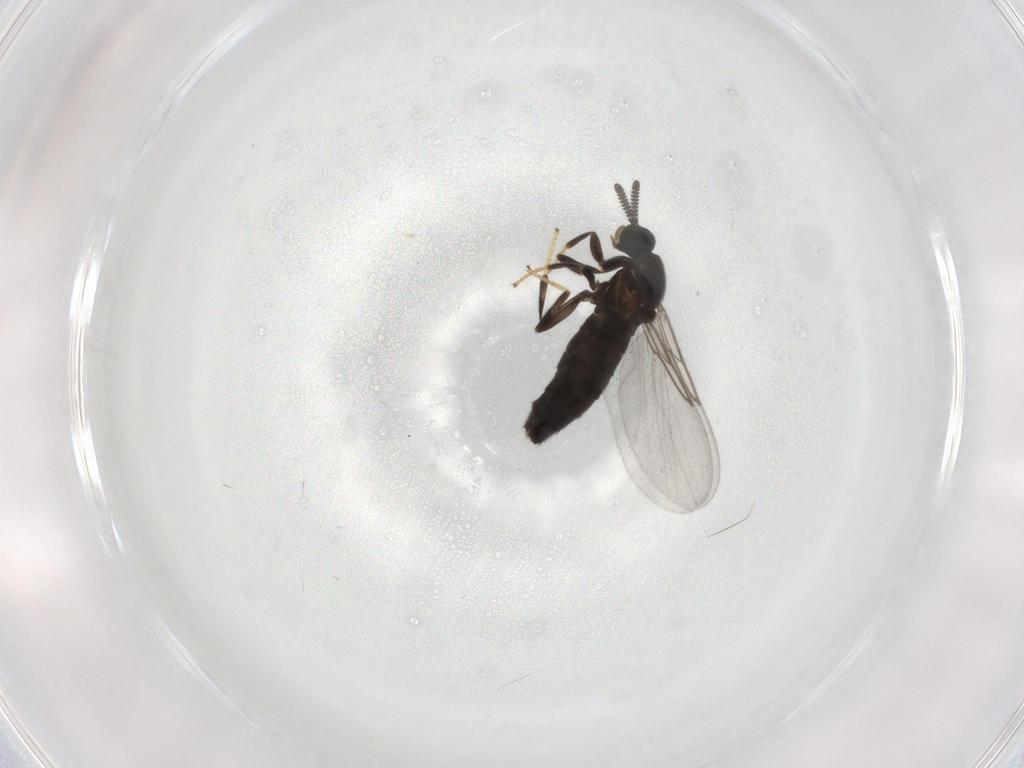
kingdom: Animalia
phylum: Arthropoda
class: Insecta
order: Diptera
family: Scatopsidae
